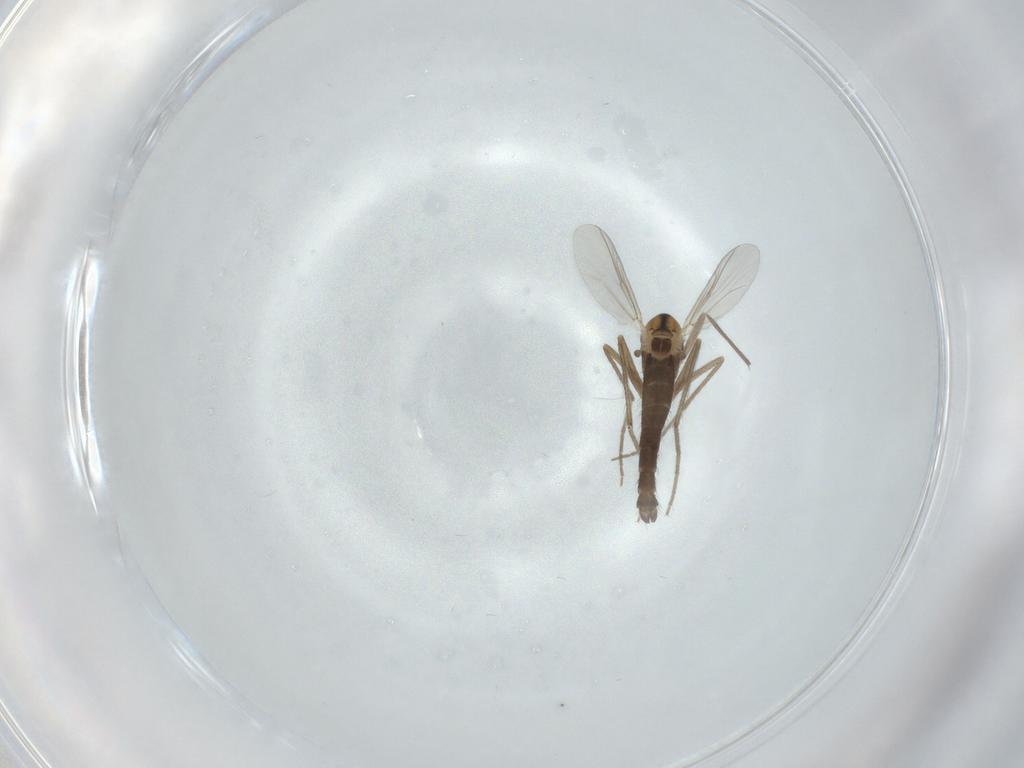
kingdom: Animalia
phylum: Arthropoda
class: Insecta
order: Diptera
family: Chironomidae
